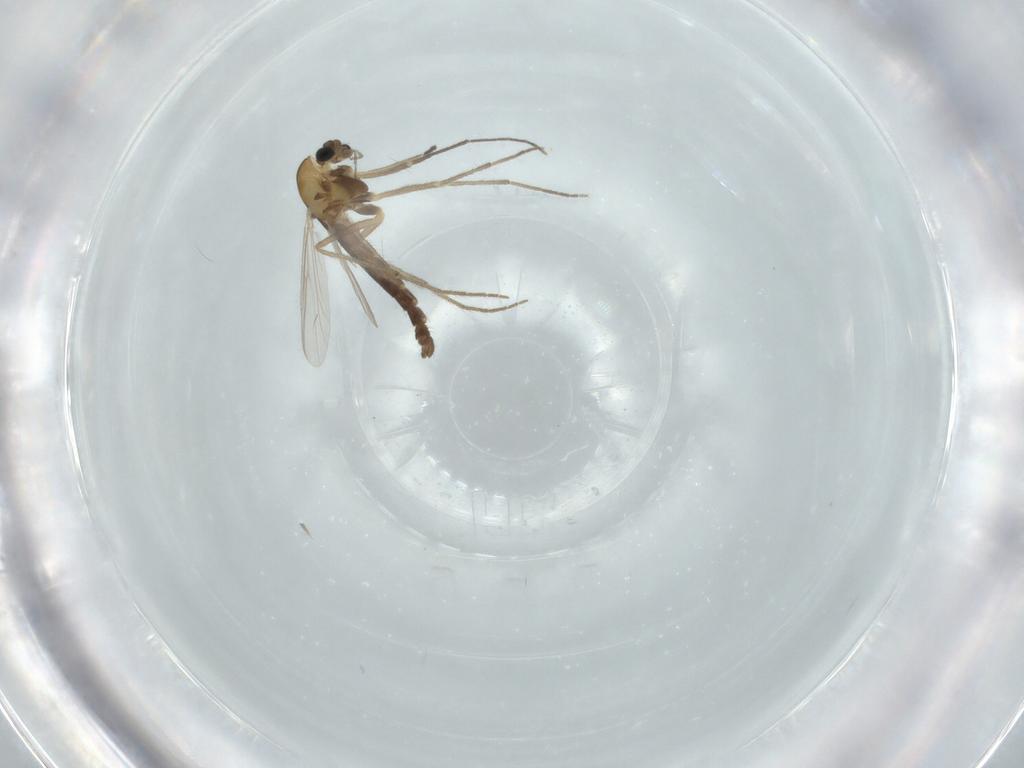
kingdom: Animalia
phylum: Arthropoda
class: Insecta
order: Diptera
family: Chironomidae
